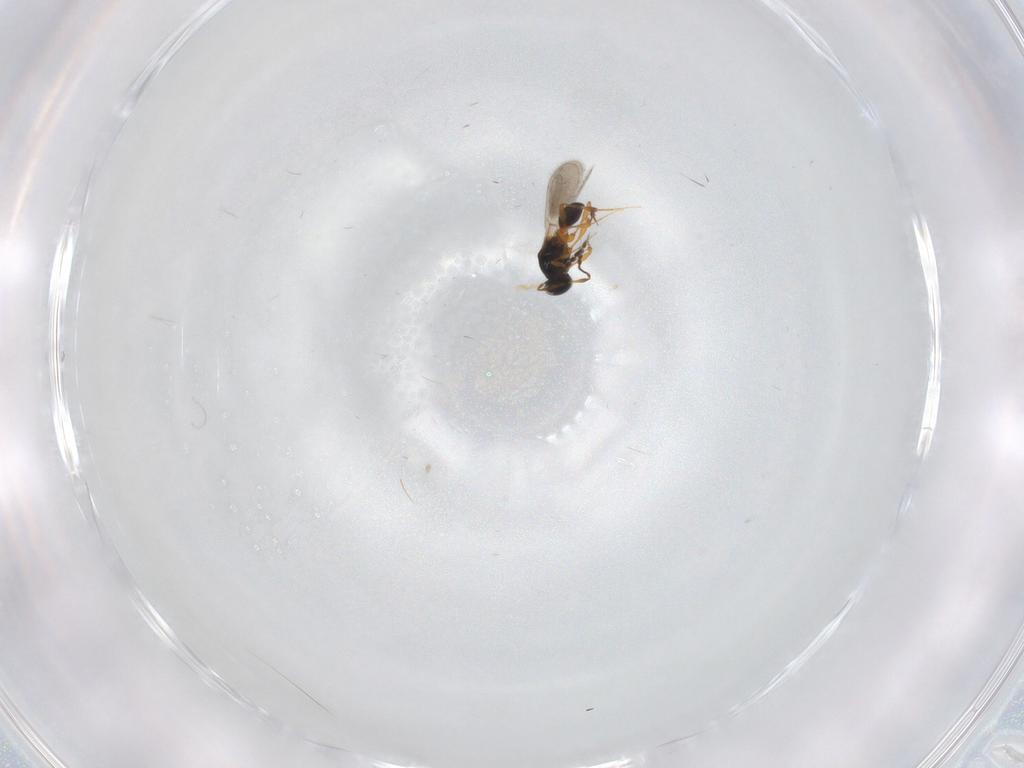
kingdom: Animalia
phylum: Arthropoda
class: Insecta
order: Hymenoptera
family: Platygastridae
